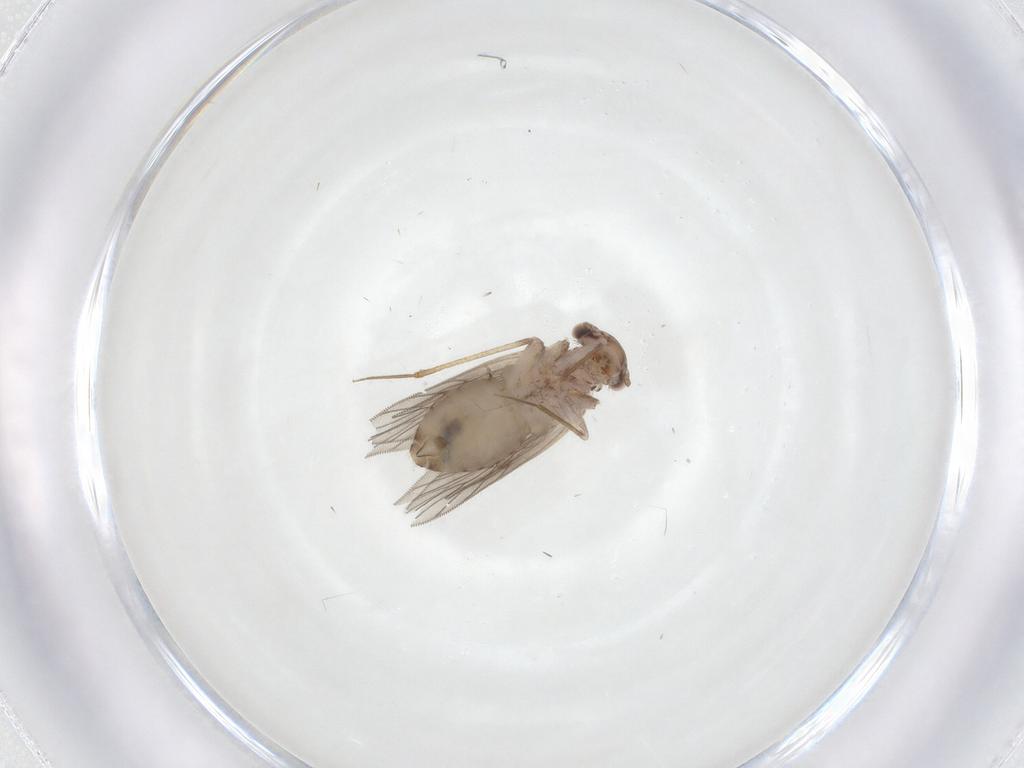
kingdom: Animalia
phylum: Arthropoda
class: Insecta
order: Psocodea
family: Lepidopsocidae
